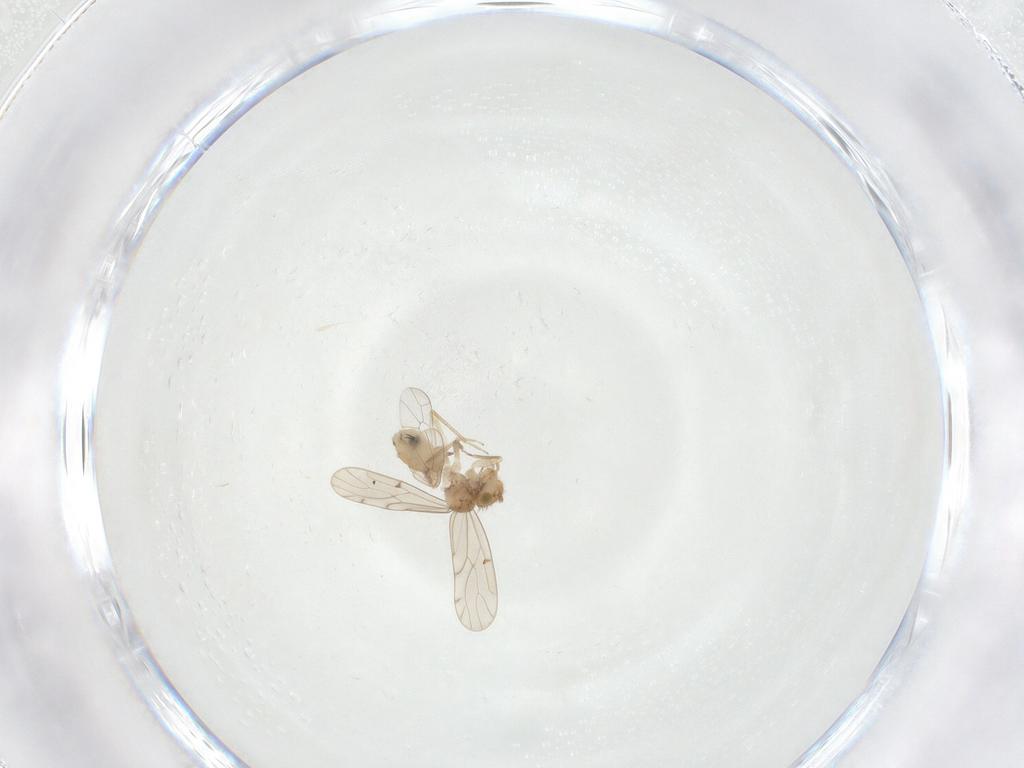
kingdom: Animalia
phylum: Arthropoda
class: Insecta
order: Psocodea
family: Ectopsocidae
